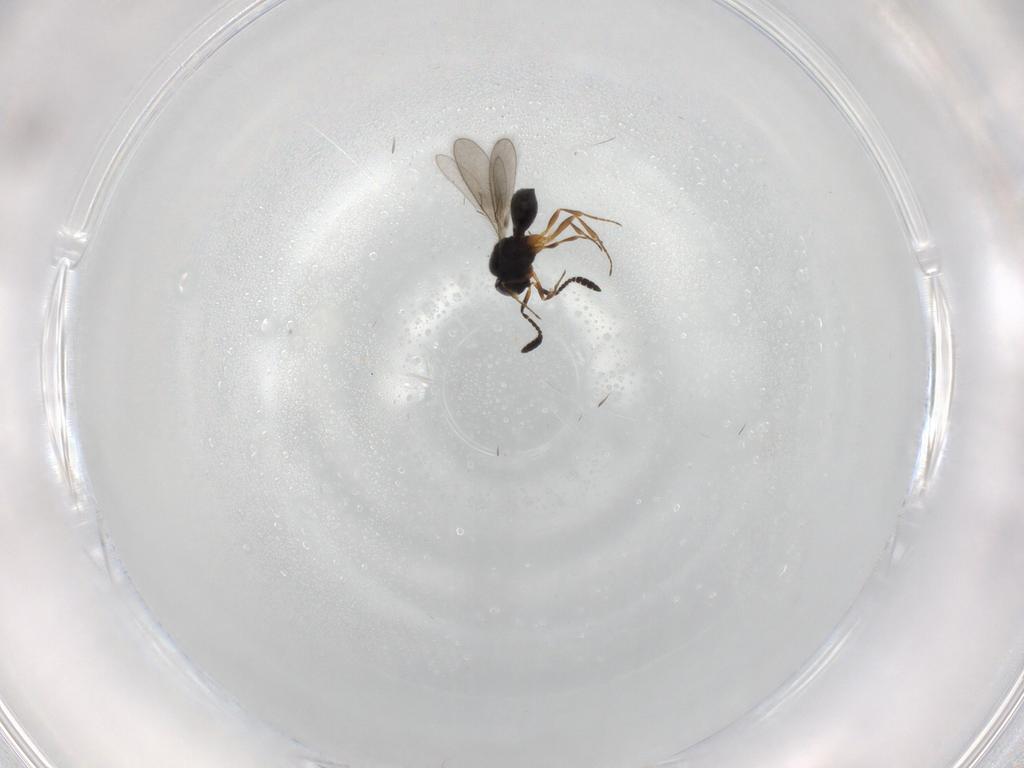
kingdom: Animalia
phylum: Arthropoda
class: Insecta
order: Hymenoptera
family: Scelionidae
